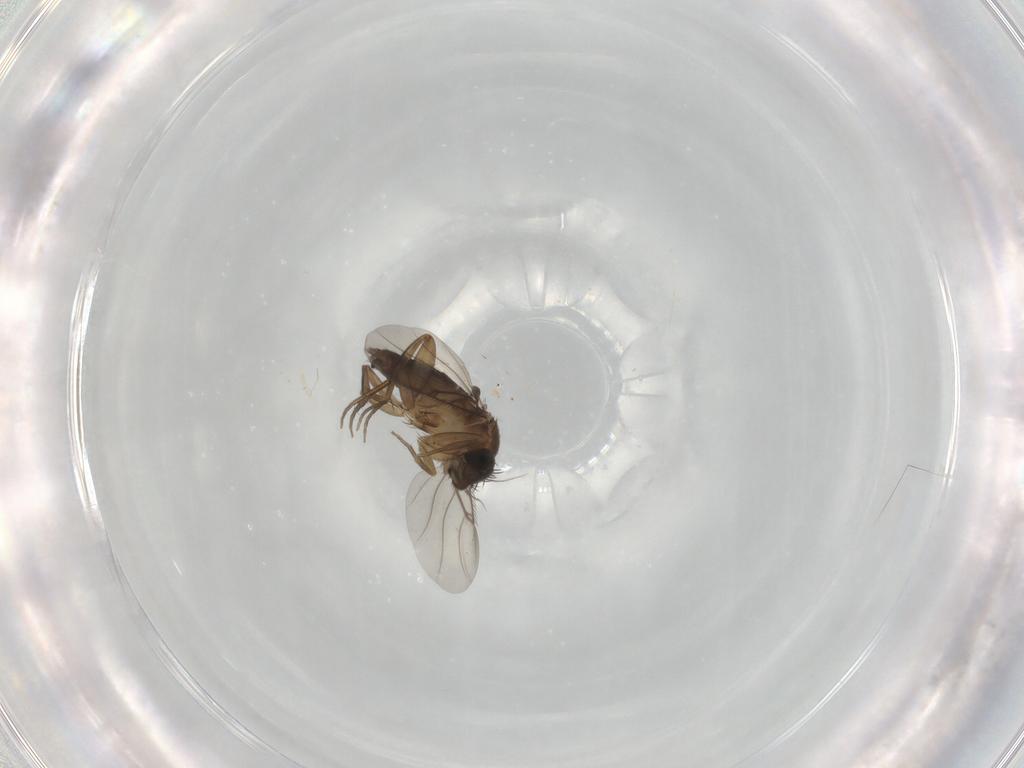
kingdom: Animalia
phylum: Arthropoda
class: Insecta
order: Diptera
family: Phoridae
